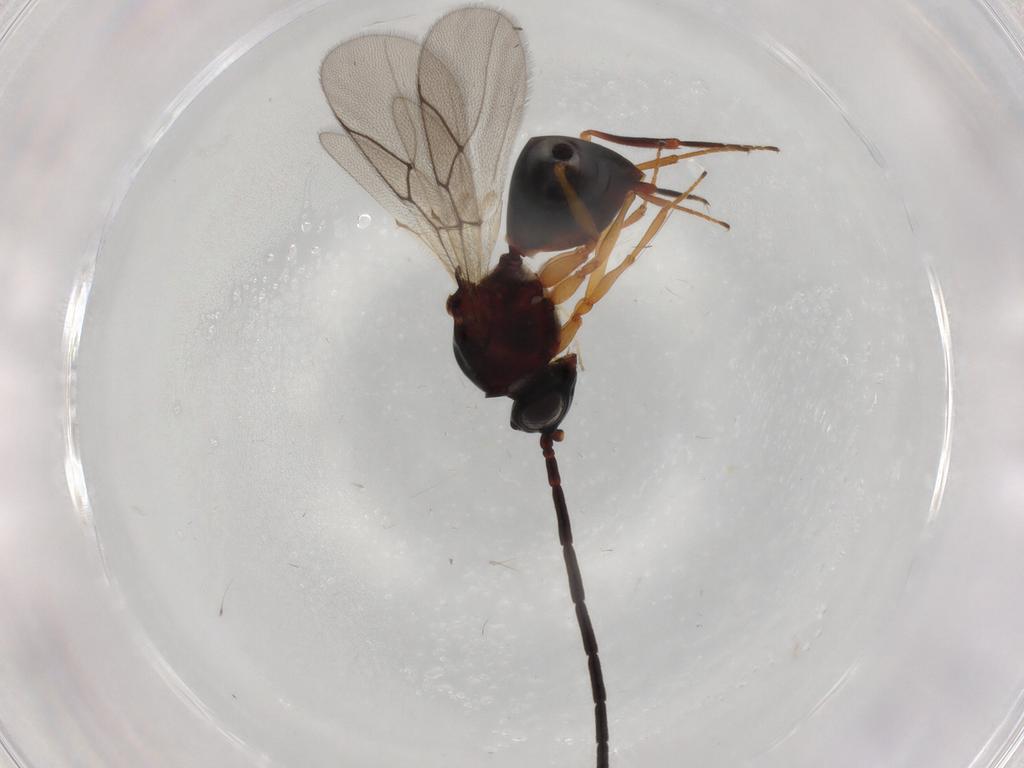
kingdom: Animalia
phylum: Arthropoda
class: Insecta
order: Hymenoptera
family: Figitidae
